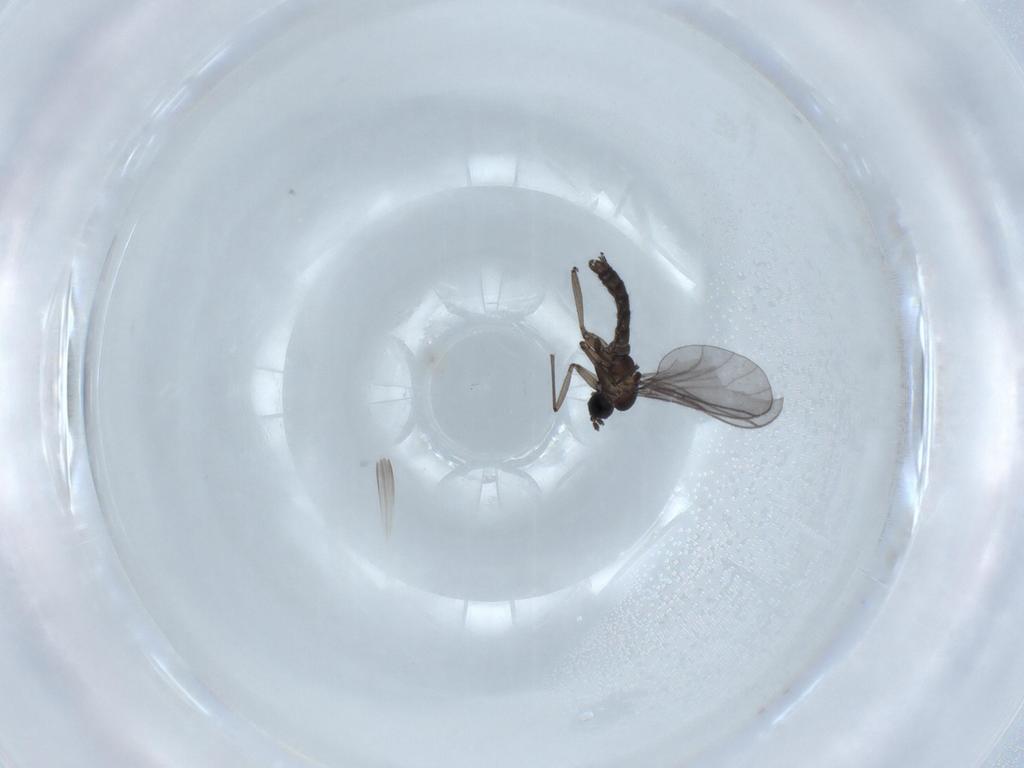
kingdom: Animalia
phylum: Arthropoda
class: Insecta
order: Diptera
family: Sciaridae
